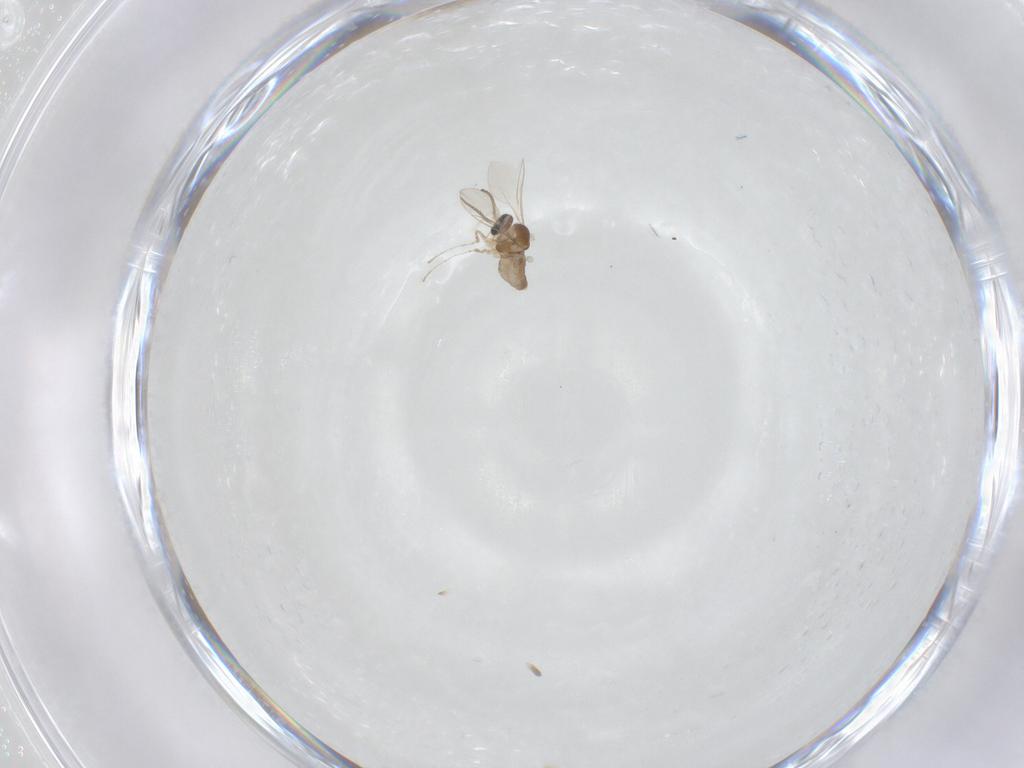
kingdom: Animalia
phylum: Arthropoda
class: Insecta
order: Diptera
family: Cecidomyiidae
